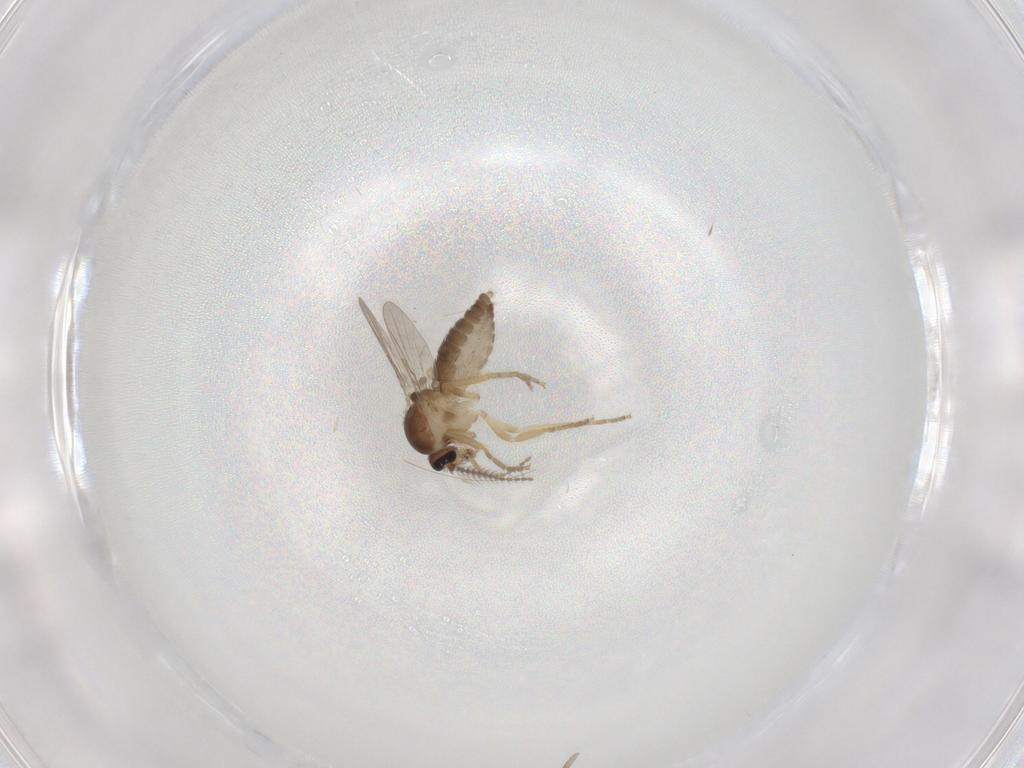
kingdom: Animalia
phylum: Arthropoda
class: Insecta
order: Diptera
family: Ceratopogonidae
